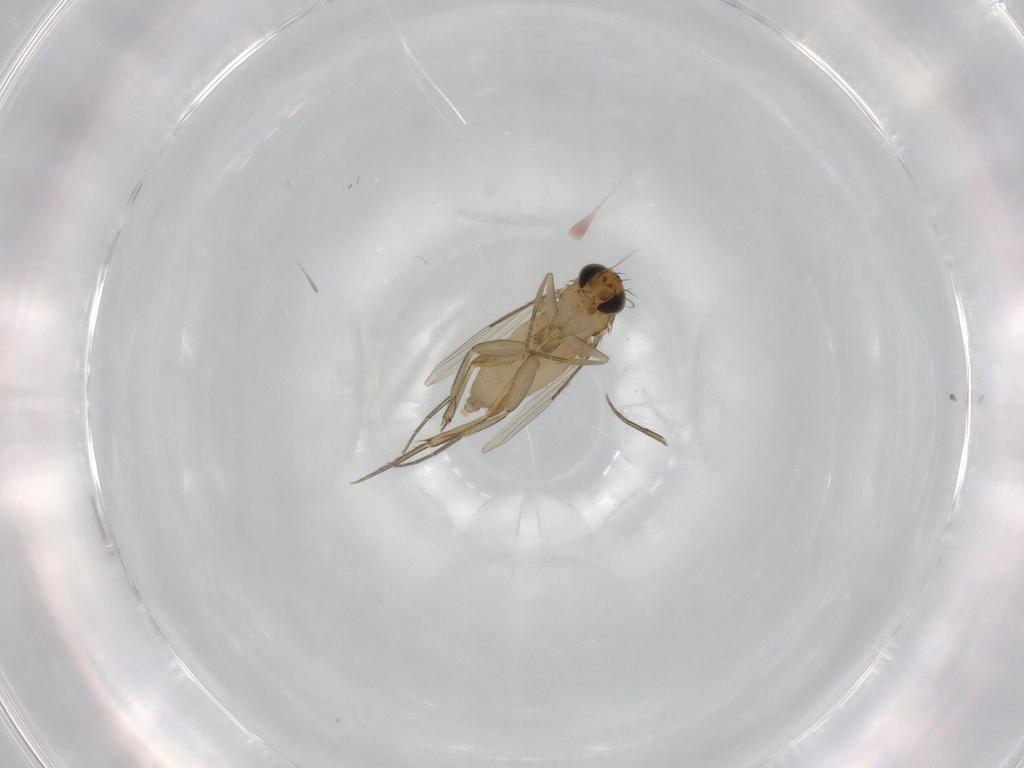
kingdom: Animalia
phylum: Arthropoda
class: Insecta
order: Diptera
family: Phoridae
